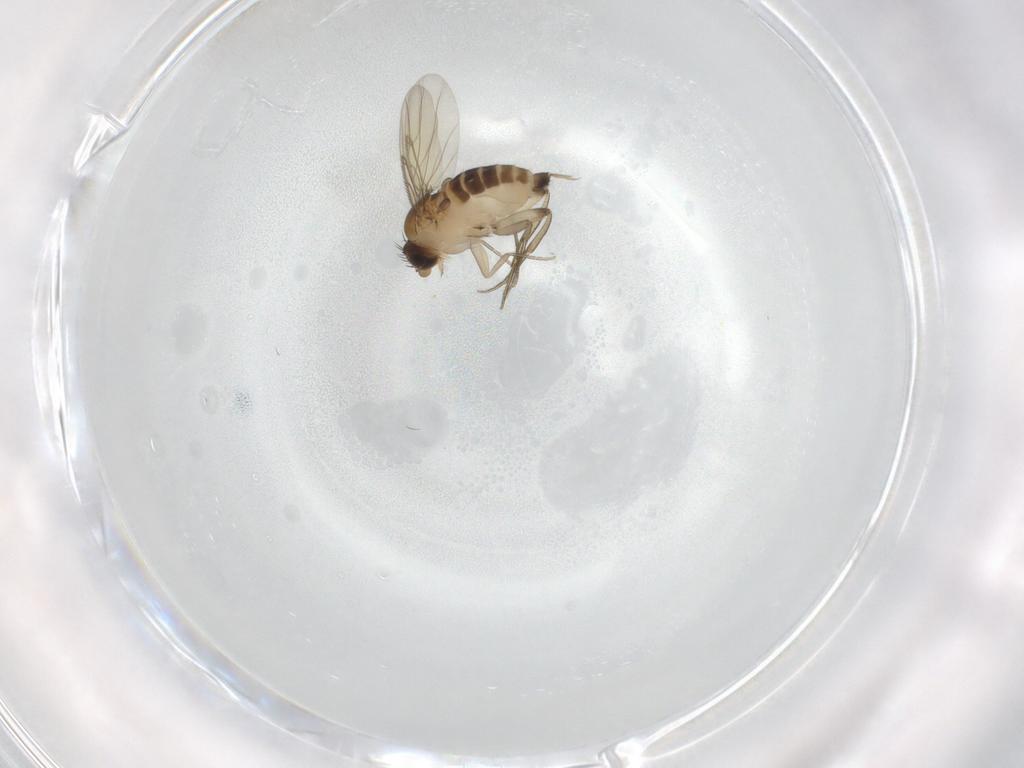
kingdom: Animalia
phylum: Arthropoda
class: Insecta
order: Diptera
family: Phoridae
